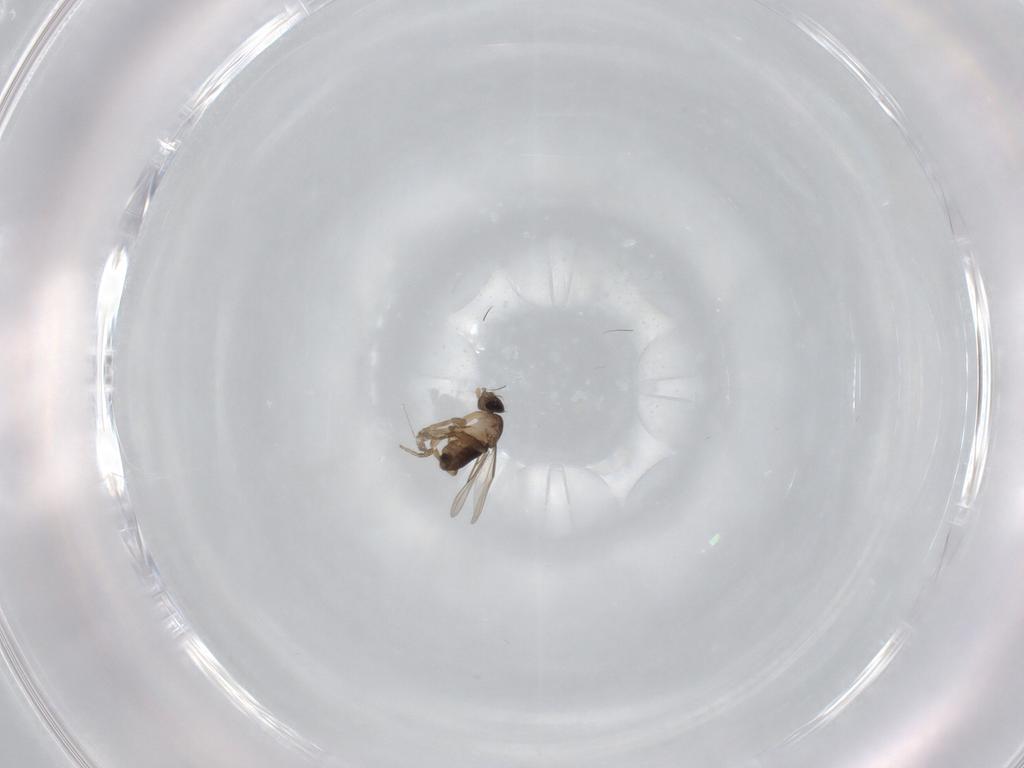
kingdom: Animalia
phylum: Arthropoda
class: Insecta
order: Diptera
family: Phoridae
